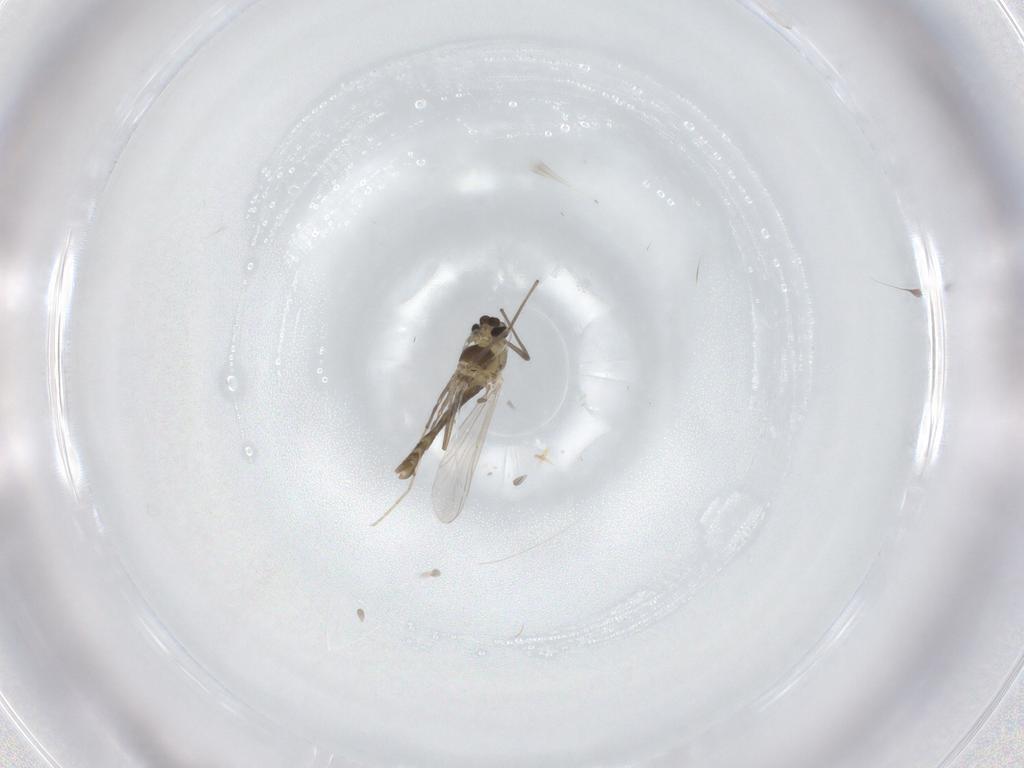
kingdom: Animalia
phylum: Arthropoda
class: Insecta
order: Diptera
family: Chironomidae
